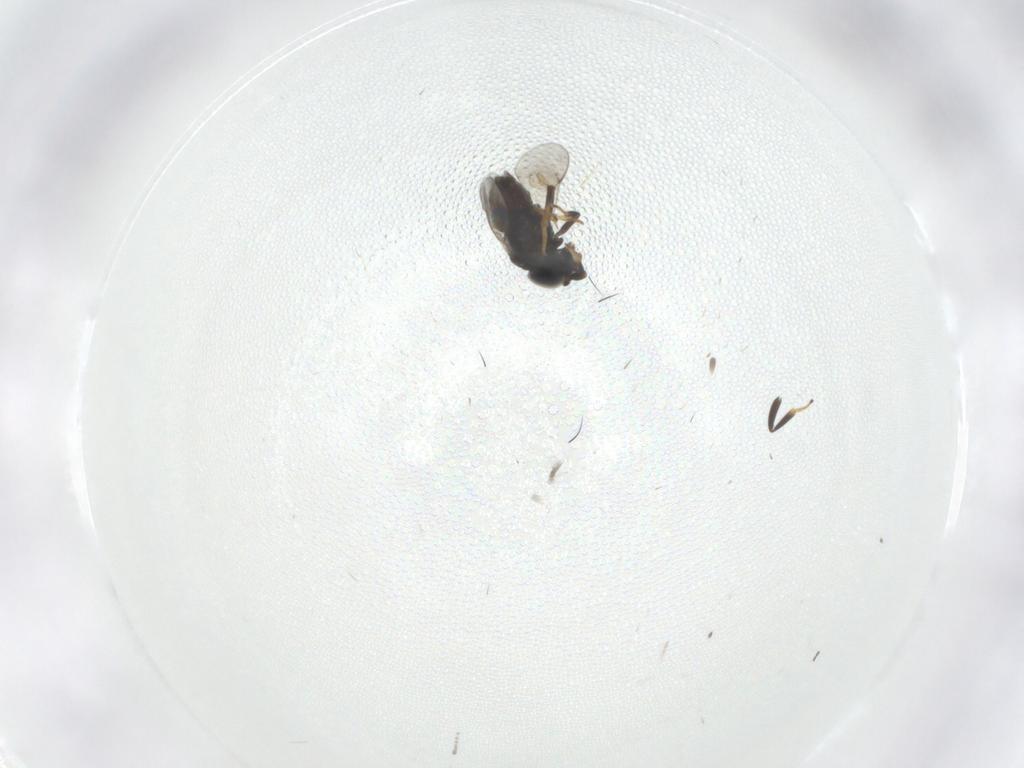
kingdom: Animalia
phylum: Arthropoda
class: Insecta
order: Hymenoptera
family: Encyrtidae
